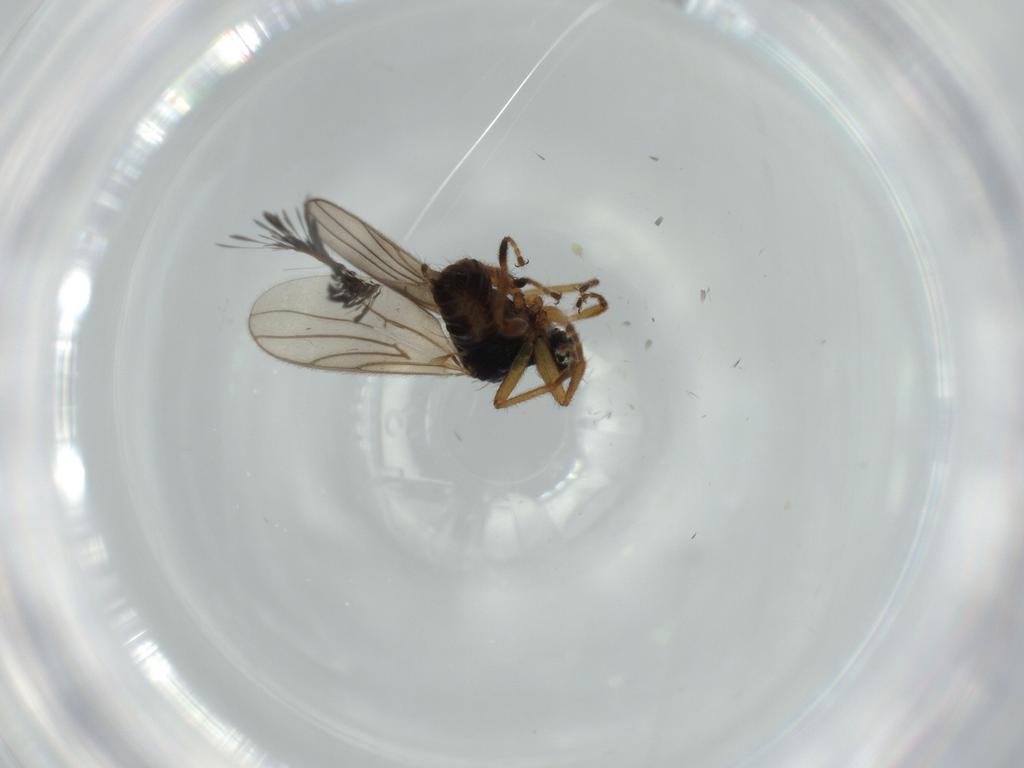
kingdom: Animalia
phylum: Arthropoda
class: Insecta
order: Diptera
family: Hybotidae
